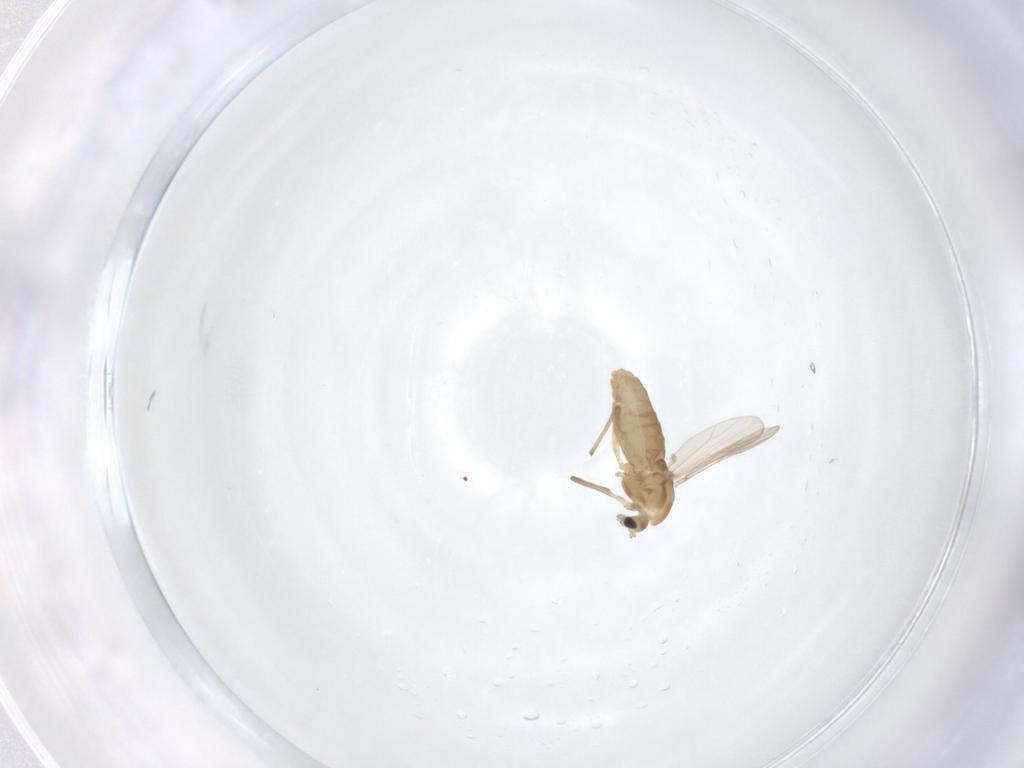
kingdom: Animalia
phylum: Arthropoda
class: Insecta
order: Diptera
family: Chironomidae
